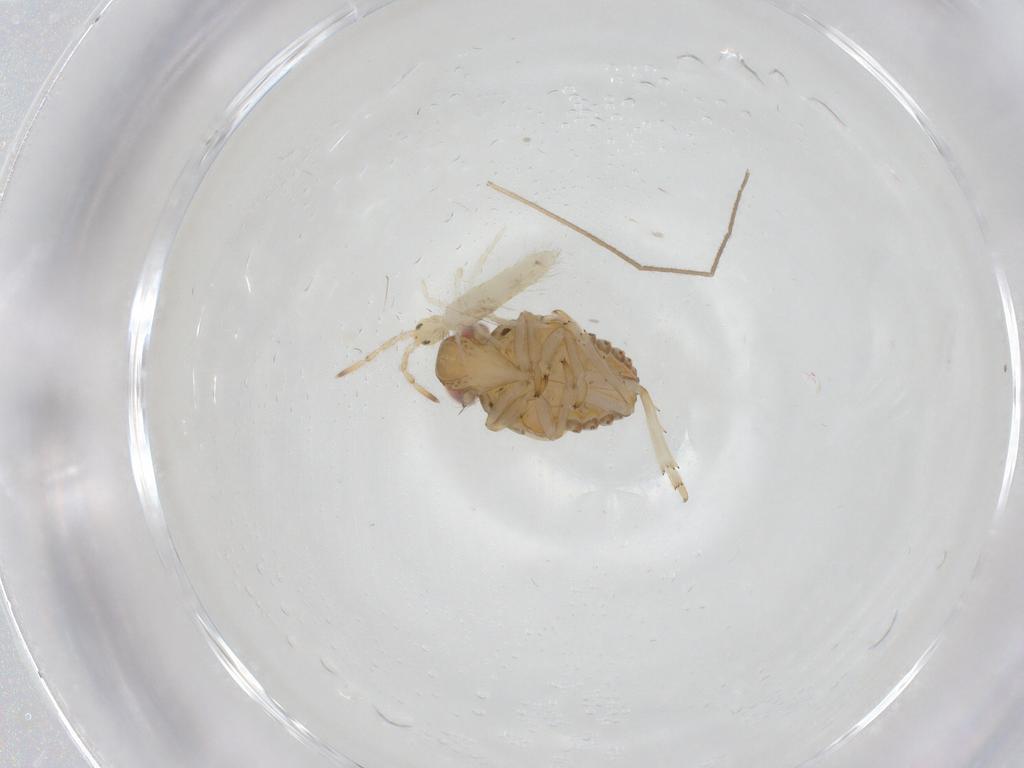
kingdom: Animalia
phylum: Arthropoda
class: Collembola
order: Entomobryomorpha
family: Entomobryidae
